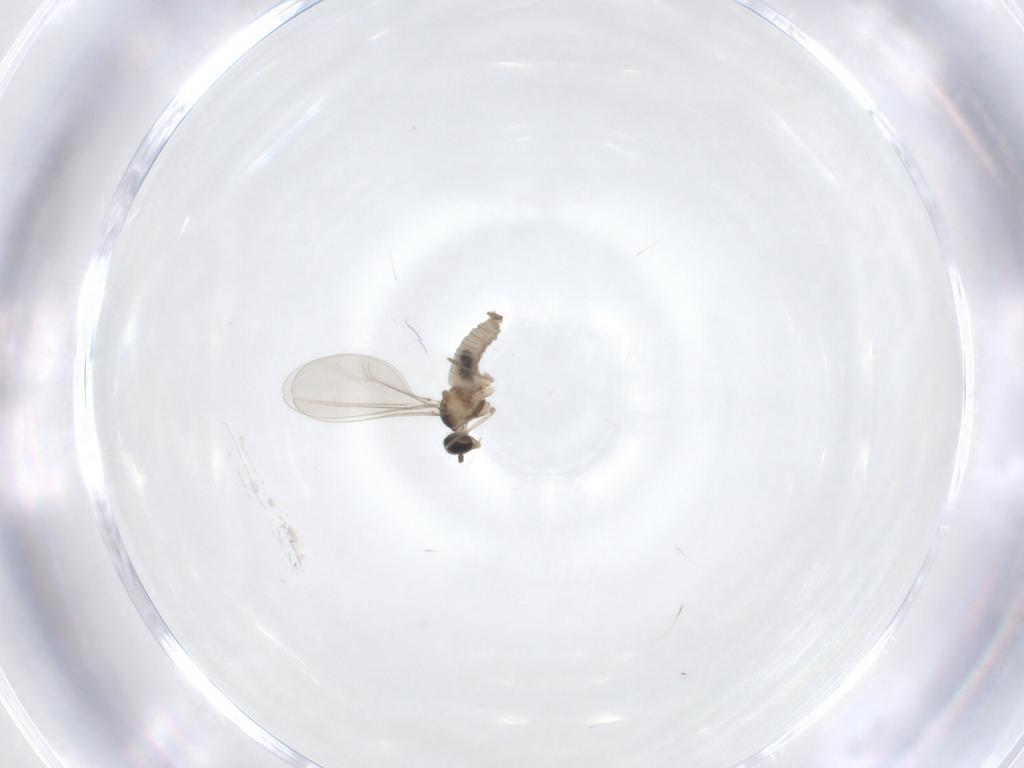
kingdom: Animalia
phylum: Arthropoda
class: Insecta
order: Diptera
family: Cecidomyiidae
